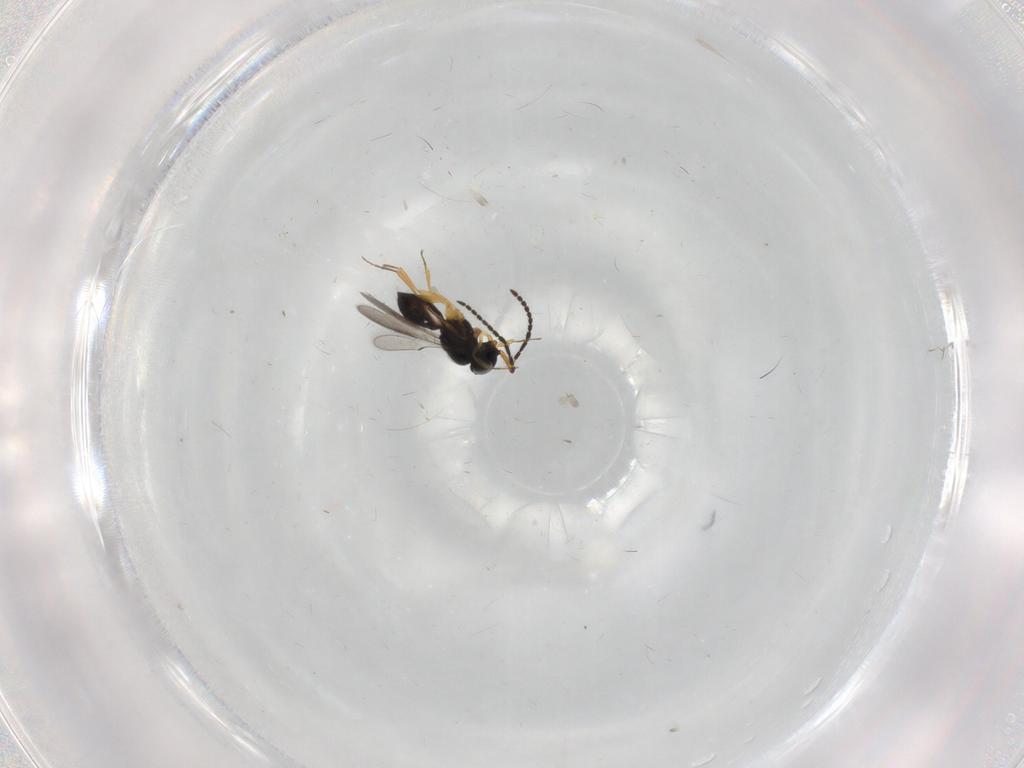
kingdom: Animalia
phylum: Arthropoda
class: Insecta
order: Hymenoptera
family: Scelionidae
